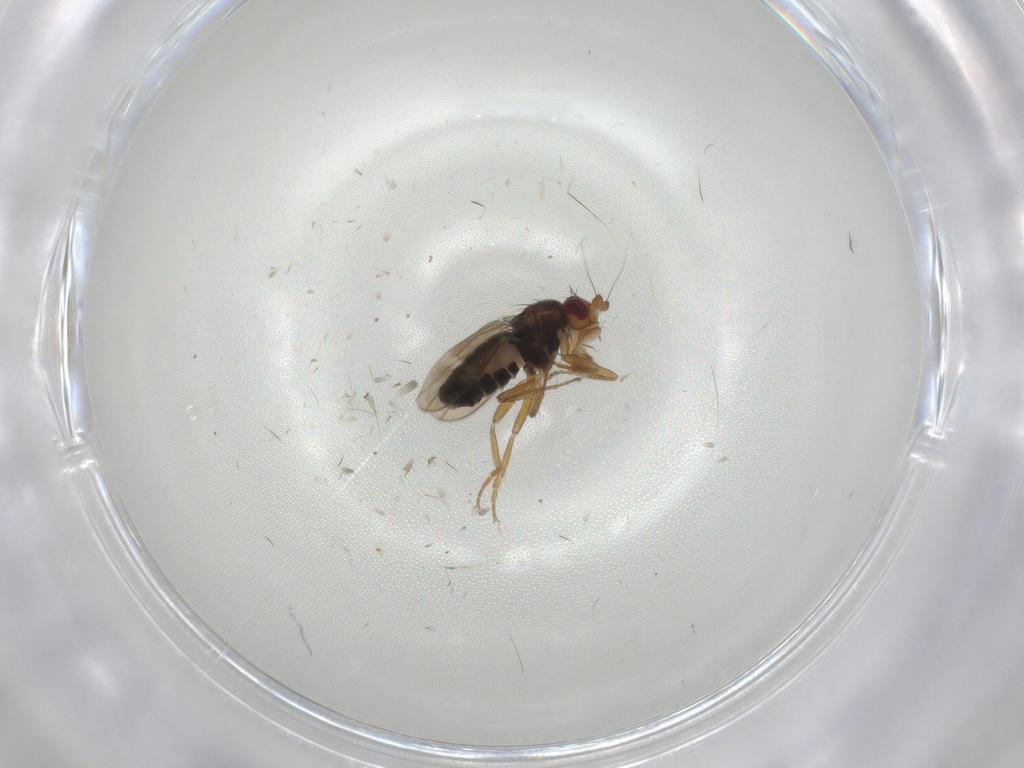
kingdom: Animalia
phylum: Arthropoda
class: Insecta
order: Diptera
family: Sphaeroceridae
